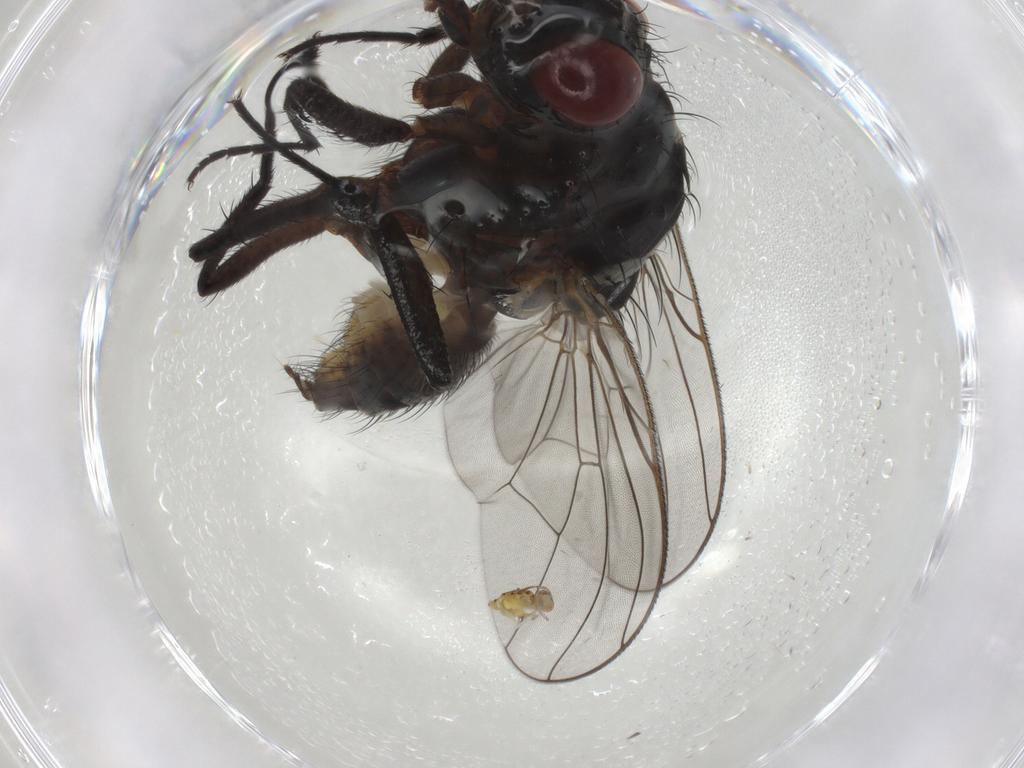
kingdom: Animalia
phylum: Arthropoda
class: Insecta
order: Diptera
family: Anthomyiidae
